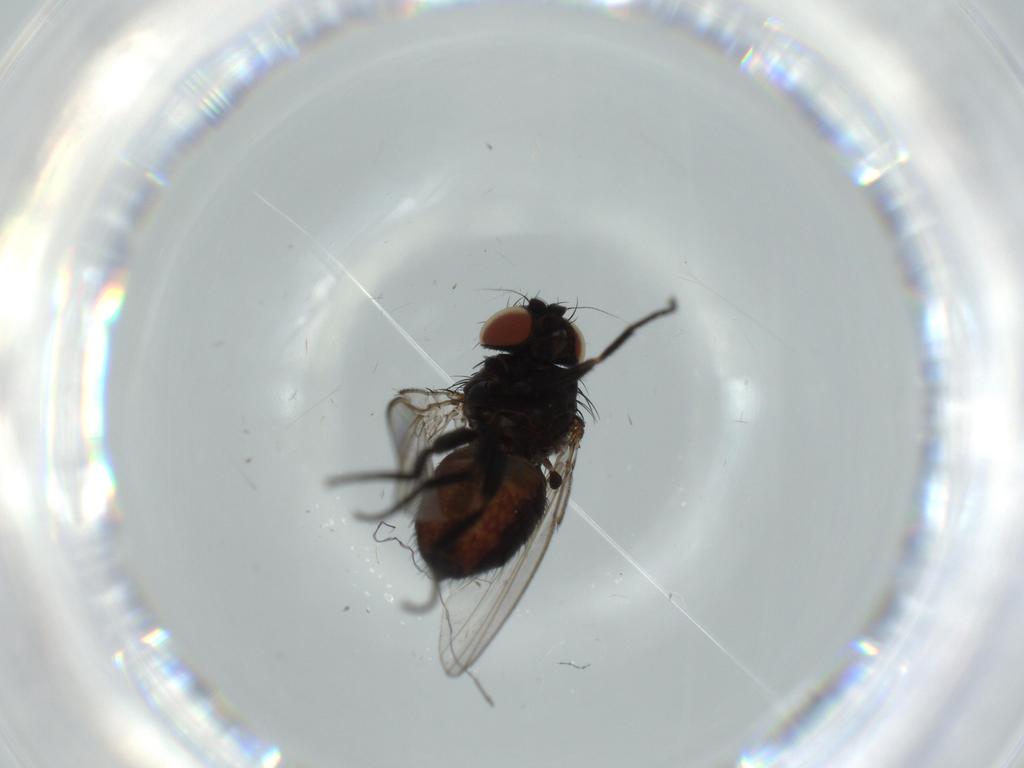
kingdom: Animalia
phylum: Arthropoda
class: Insecta
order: Diptera
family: Milichiidae
